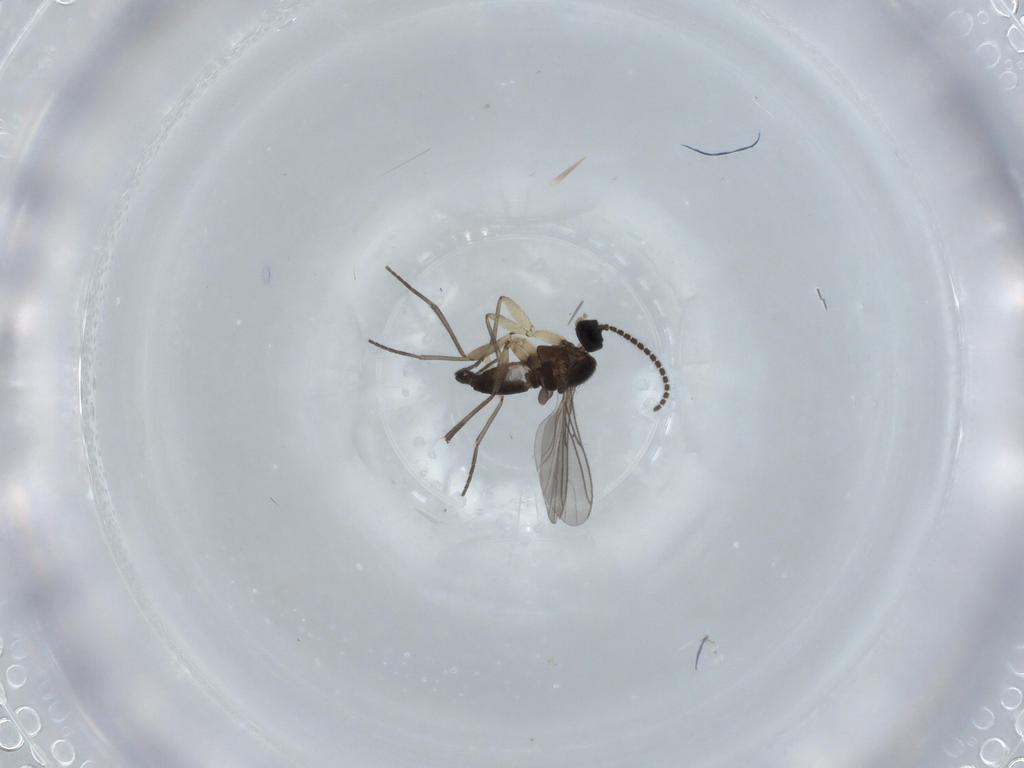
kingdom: Animalia
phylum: Arthropoda
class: Insecta
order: Diptera
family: Sciaridae
